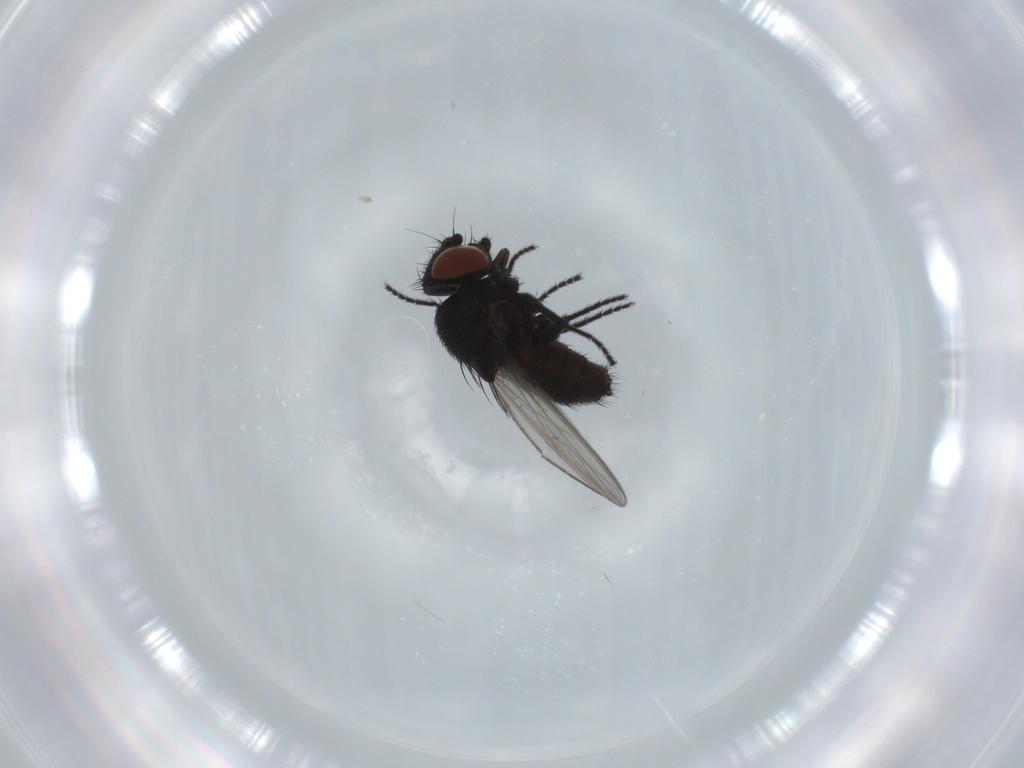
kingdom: Animalia
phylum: Arthropoda
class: Insecta
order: Diptera
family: Milichiidae
